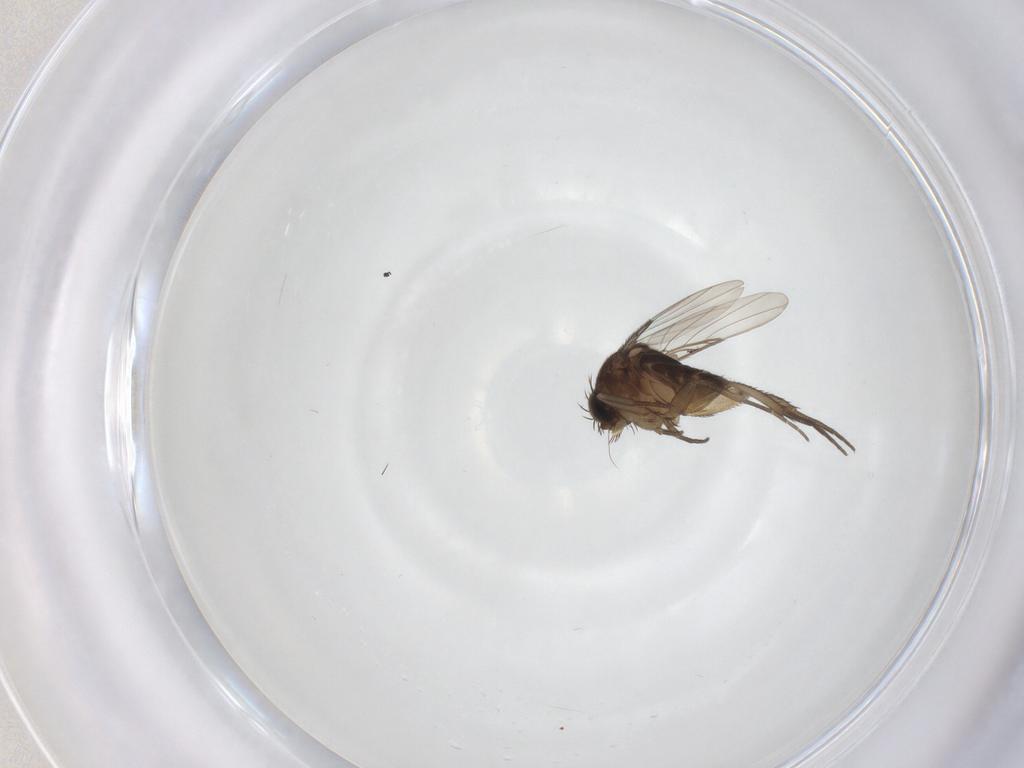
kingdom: Animalia
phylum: Arthropoda
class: Insecta
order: Diptera
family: Phoridae
